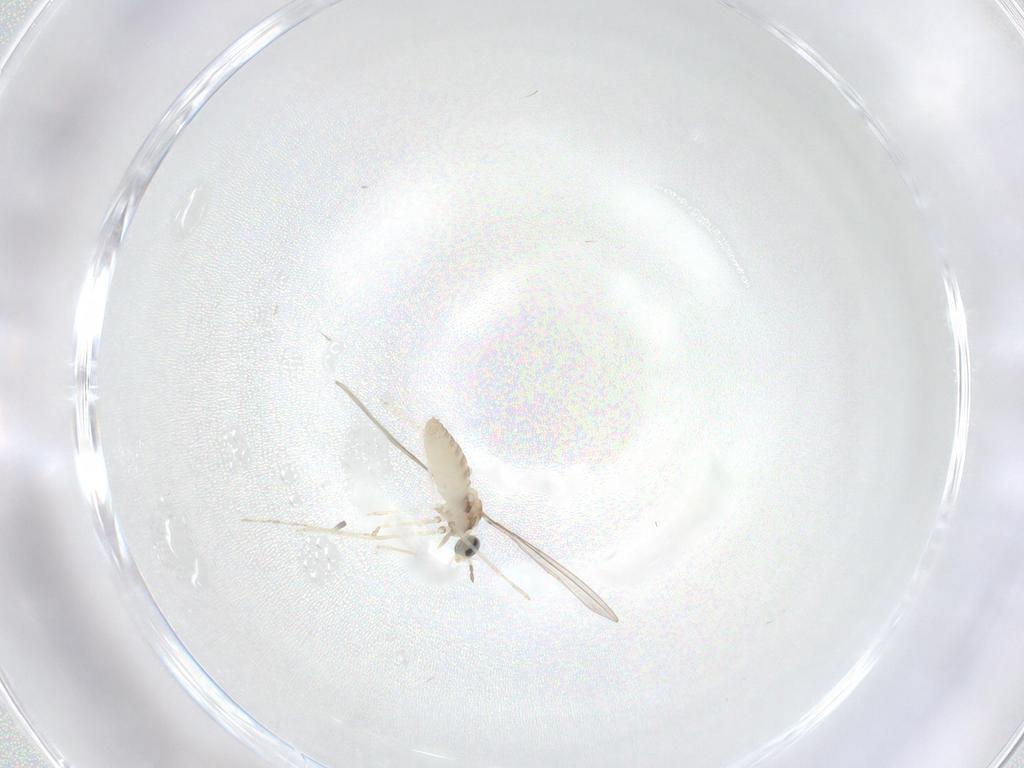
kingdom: Animalia
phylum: Arthropoda
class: Insecta
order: Diptera
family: Cecidomyiidae
